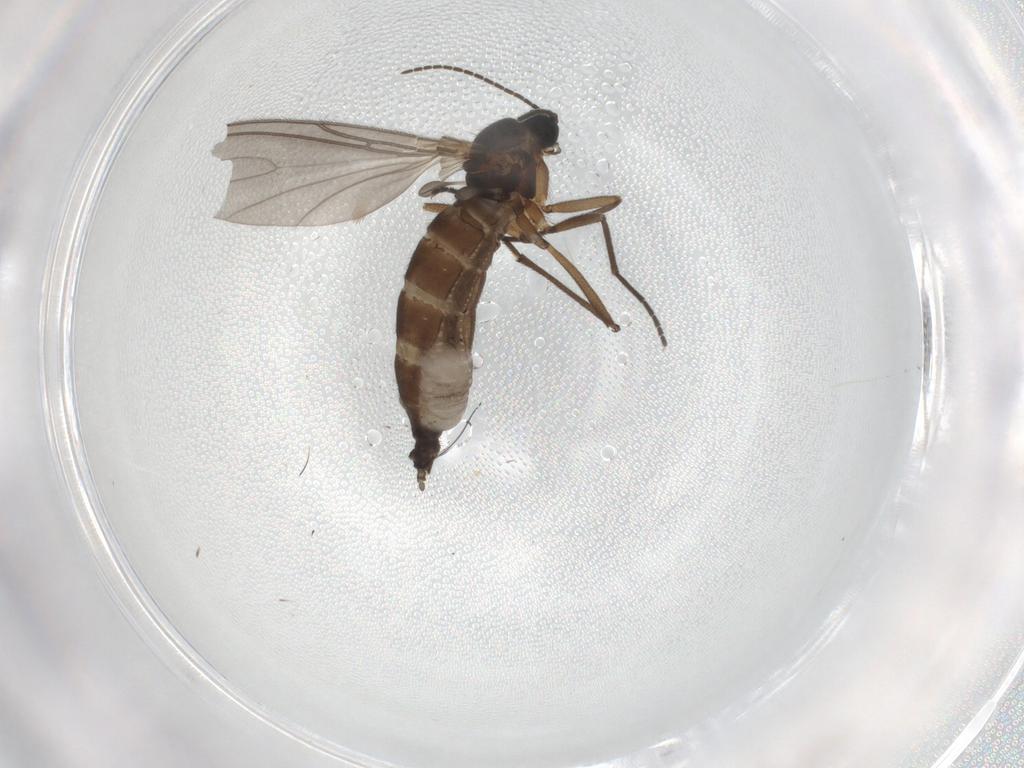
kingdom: Animalia
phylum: Arthropoda
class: Insecta
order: Diptera
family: Sciaridae
